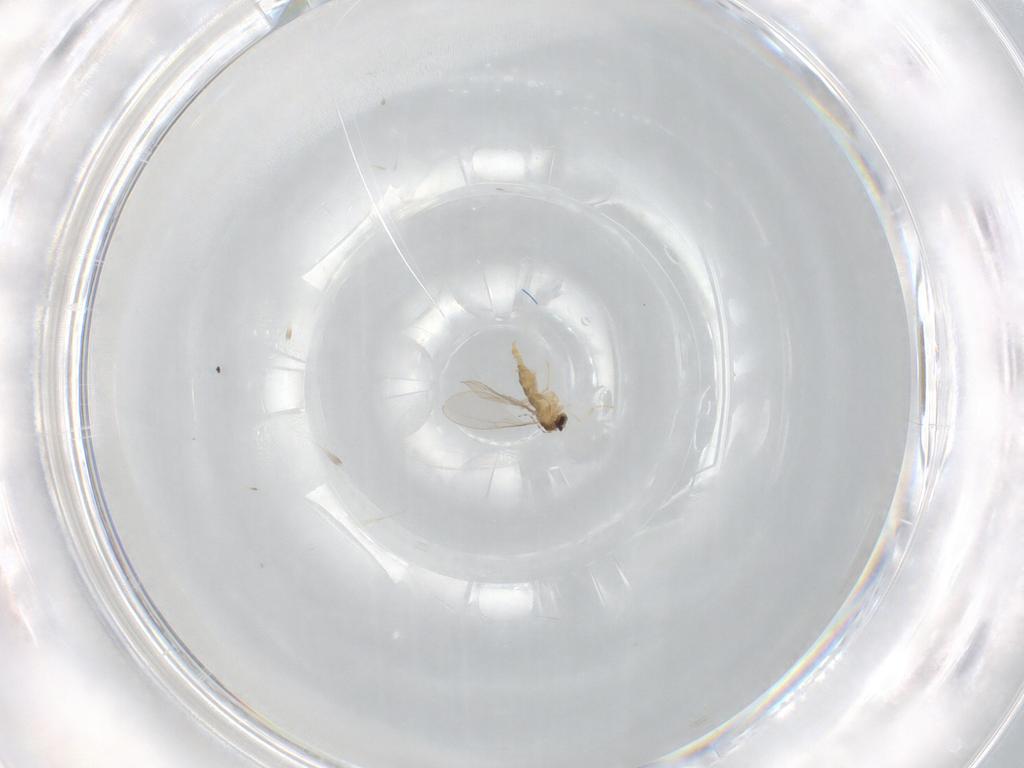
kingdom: Animalia
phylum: Arthropoda
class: Insecta
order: Diptera
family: Cecidomyiidae
